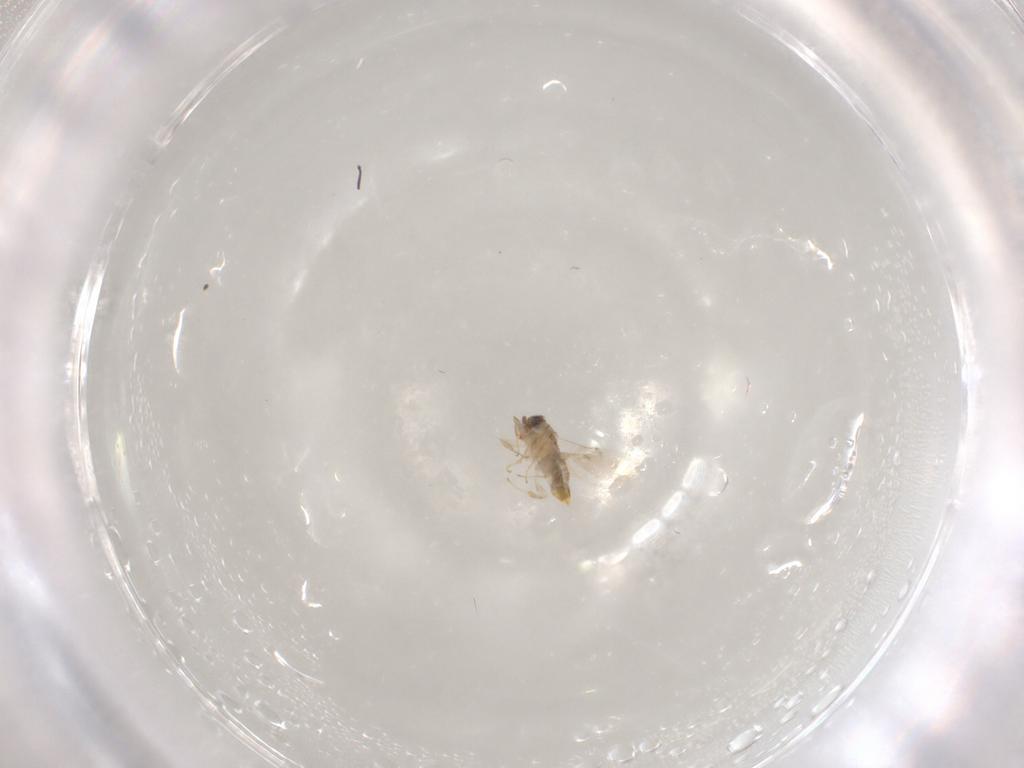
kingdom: Animalia
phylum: Arthropoda
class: Insecta
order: Hymenoptera
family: Encyrtidae
